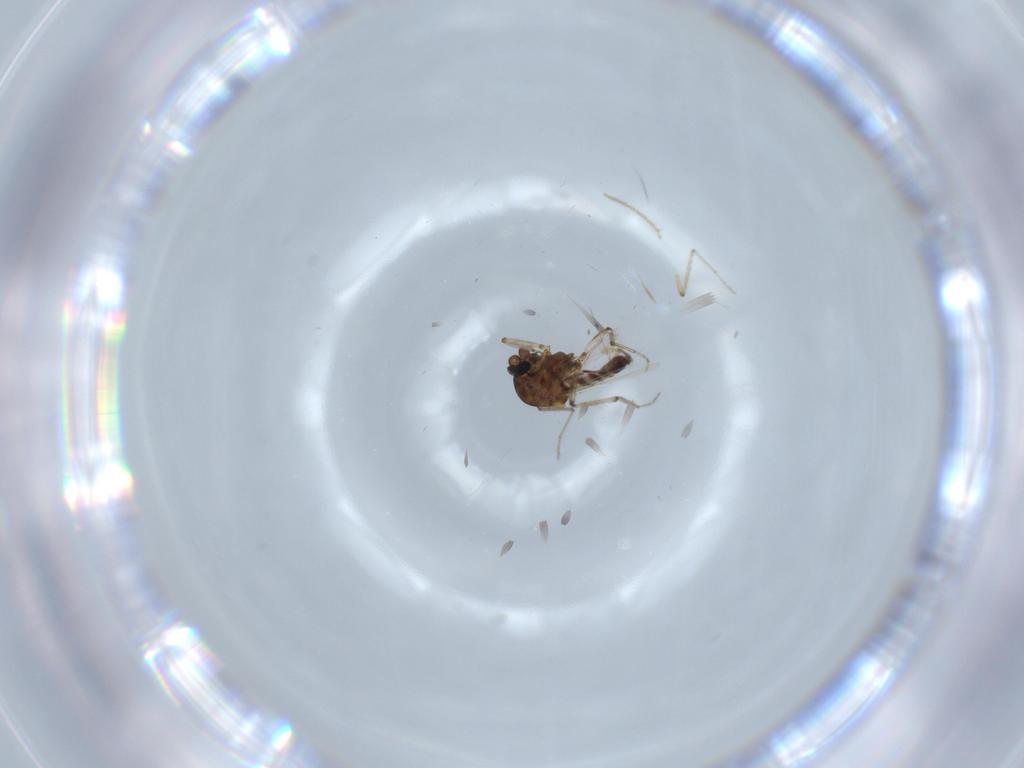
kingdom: Animalia
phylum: Arthropoda
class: Insecta
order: Diptera
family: Ceratopogonidae
